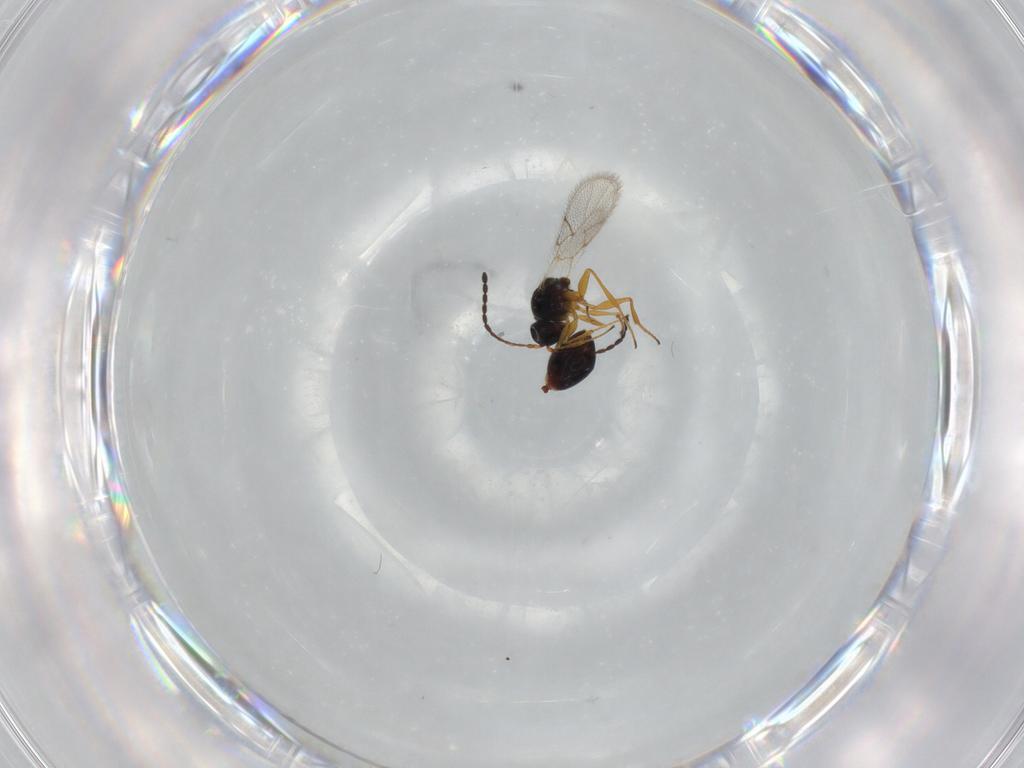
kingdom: Animalia
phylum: Arthropoda
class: Insecta
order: Hymenoptera
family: Figitidae
